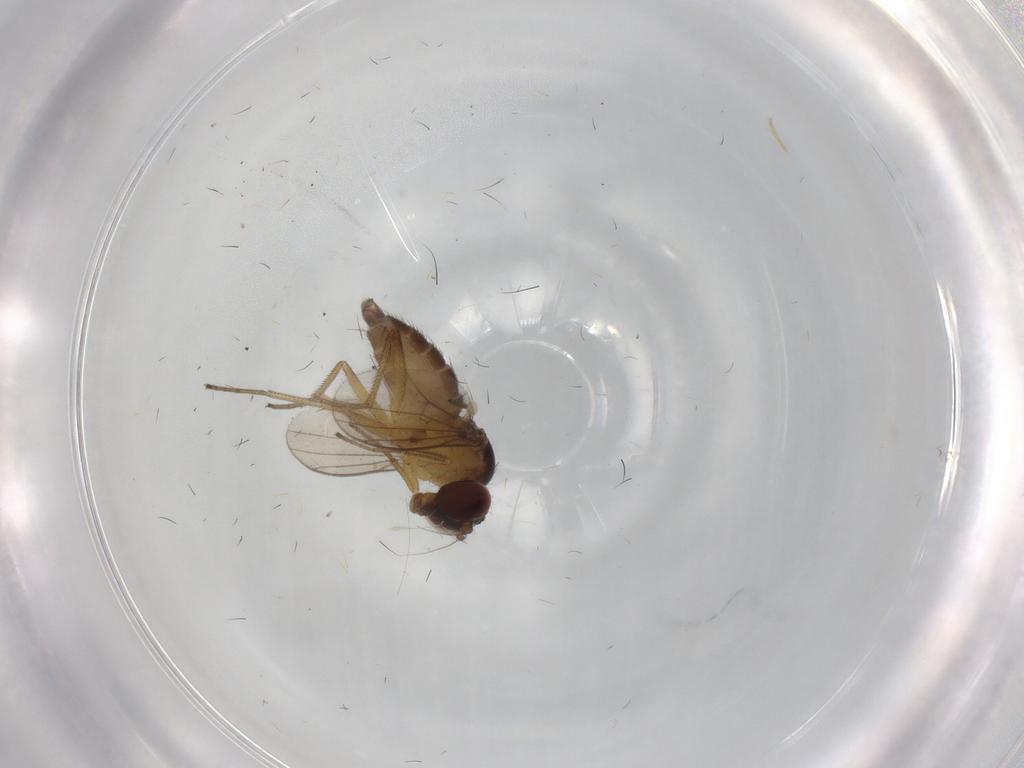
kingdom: Animalia
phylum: Arthropoda
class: Insecta
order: Diptera
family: Dolichopodidae
